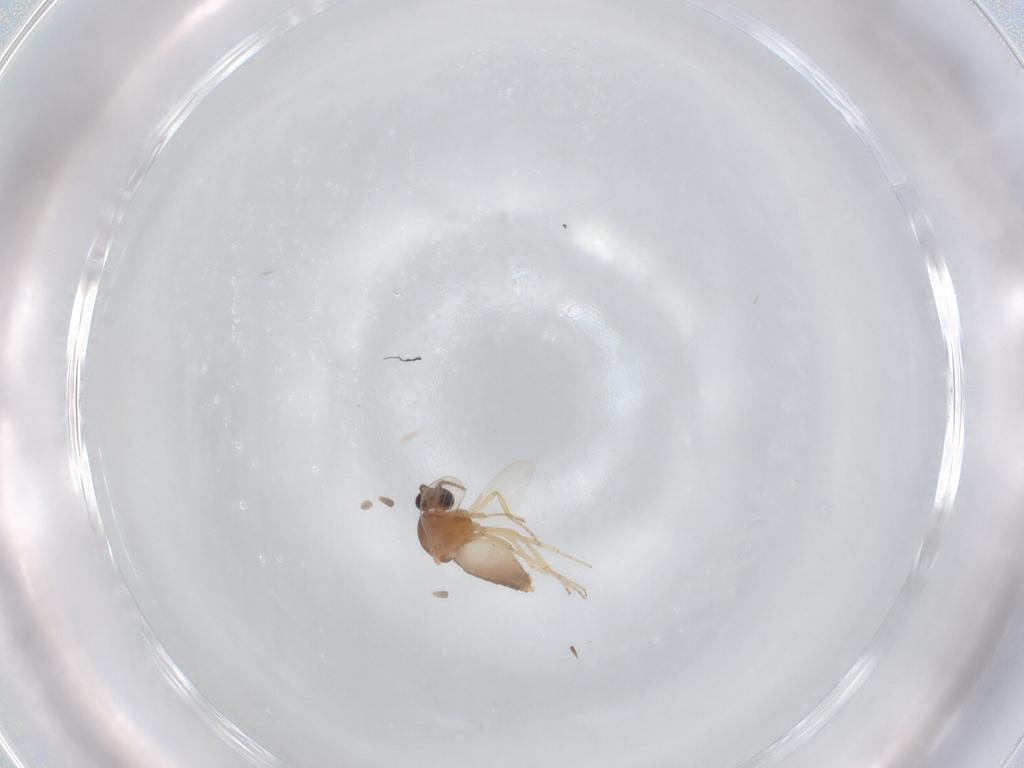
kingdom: Animalia
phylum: Arthropoda
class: Insecta
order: Diptera
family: Ceratopogonidae
